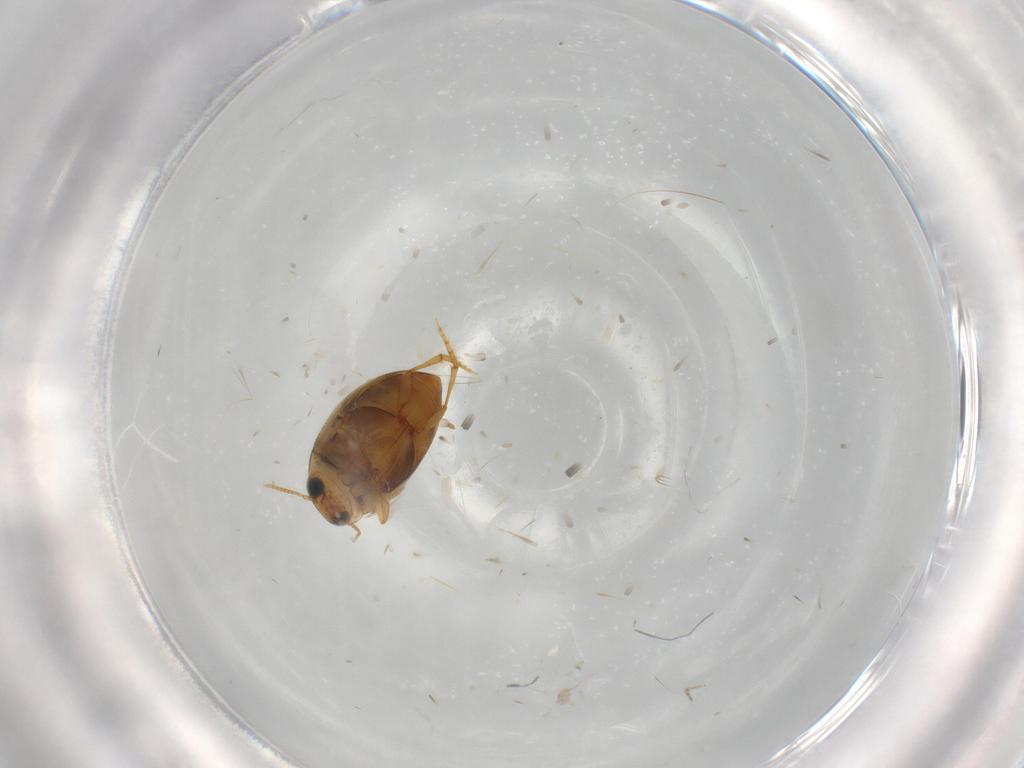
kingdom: Animalia
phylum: Arthropoda
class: Insecta
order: Coleoptera
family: Dytiscidae
